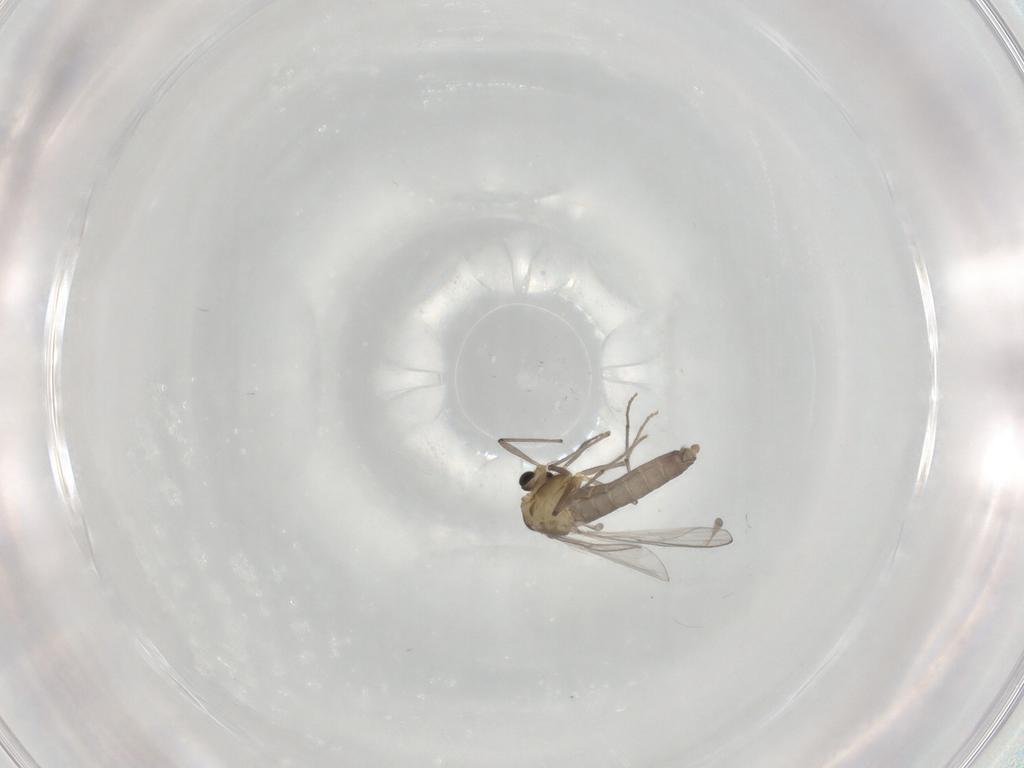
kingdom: Animalia
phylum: Arthropoda
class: Insecta
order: Diptera
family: Chironomidae
